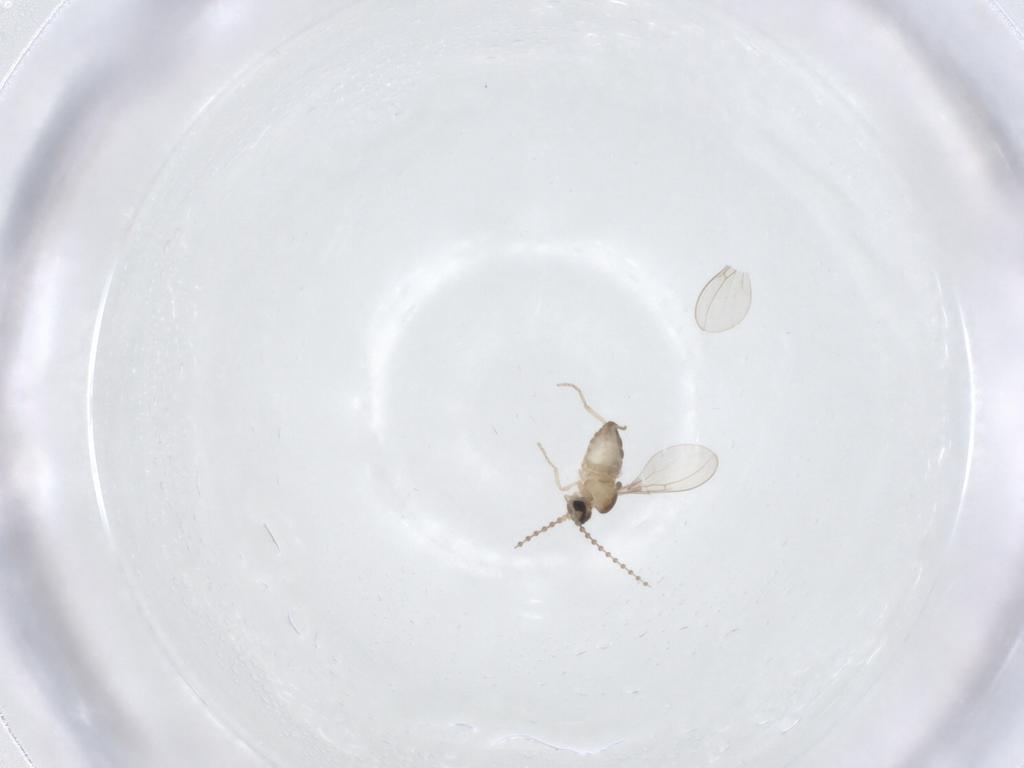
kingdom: Animalia
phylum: Arthropoda
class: Insecta
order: Diptera
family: Cecidomyiidae
